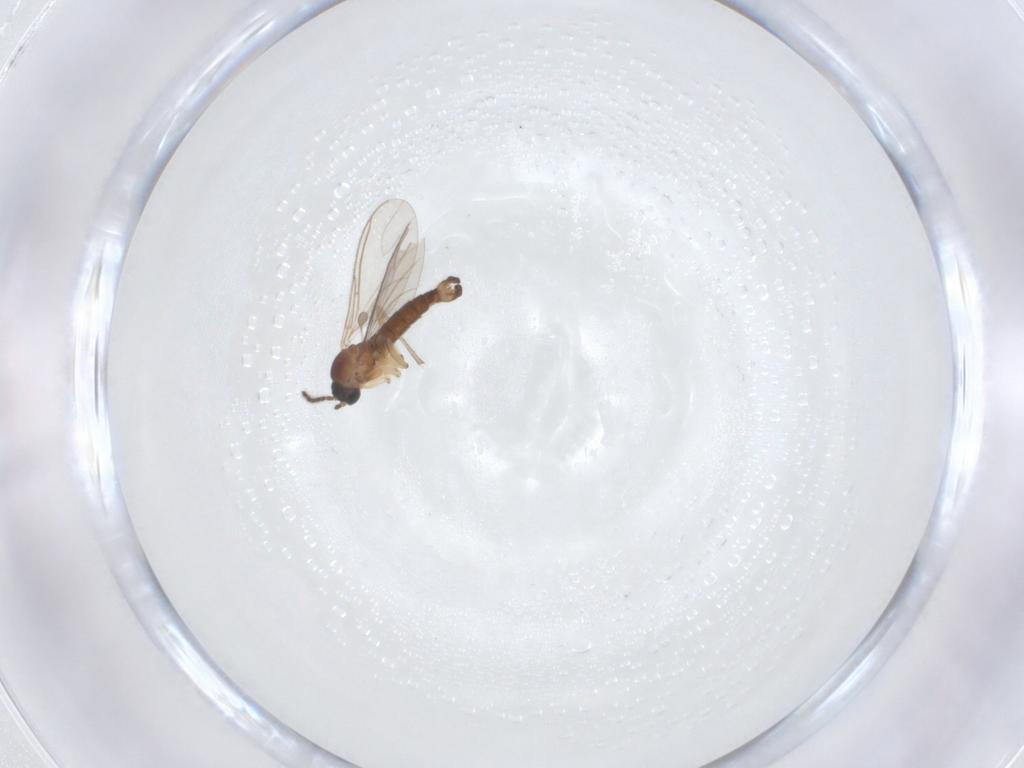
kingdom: Animalia
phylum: Arthropoda
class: Insecta
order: Diptera
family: Sciaridae
